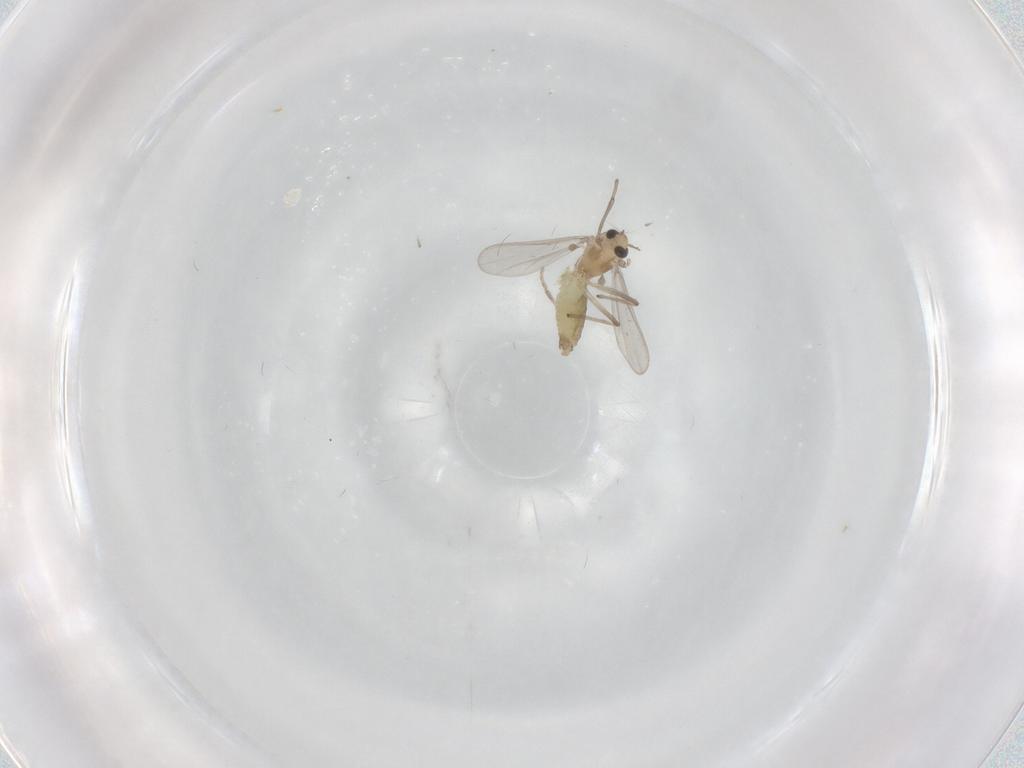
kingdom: Animalia
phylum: Arthropoda
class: Insecta
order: Diptera
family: Chironomidae
